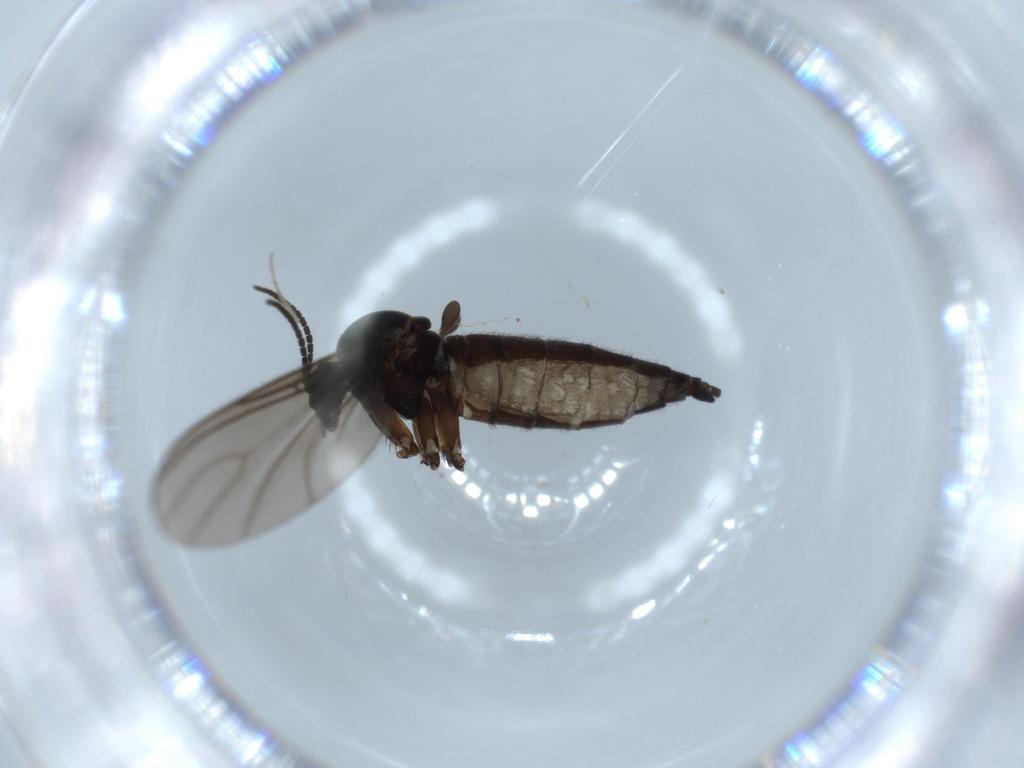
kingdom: Animalia
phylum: Arthropoda
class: Insecta
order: Diptera
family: Sciaridae
